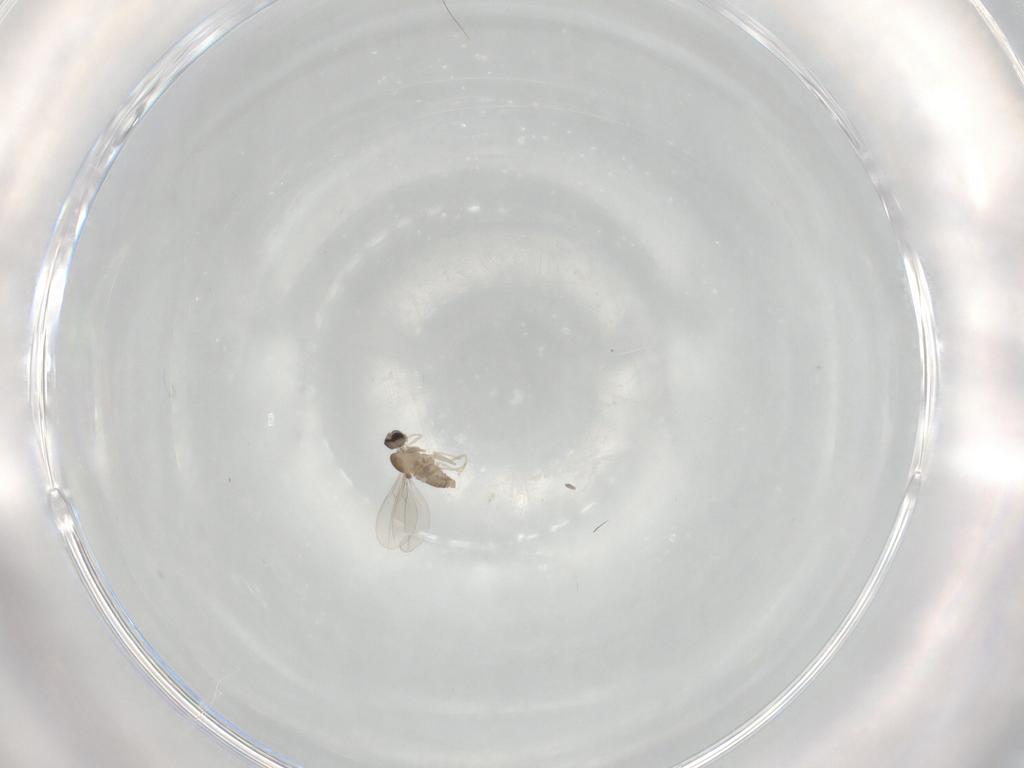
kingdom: Animalia
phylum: Arthropoda
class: Insecta
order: Diptera
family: Cecidomyiidae
